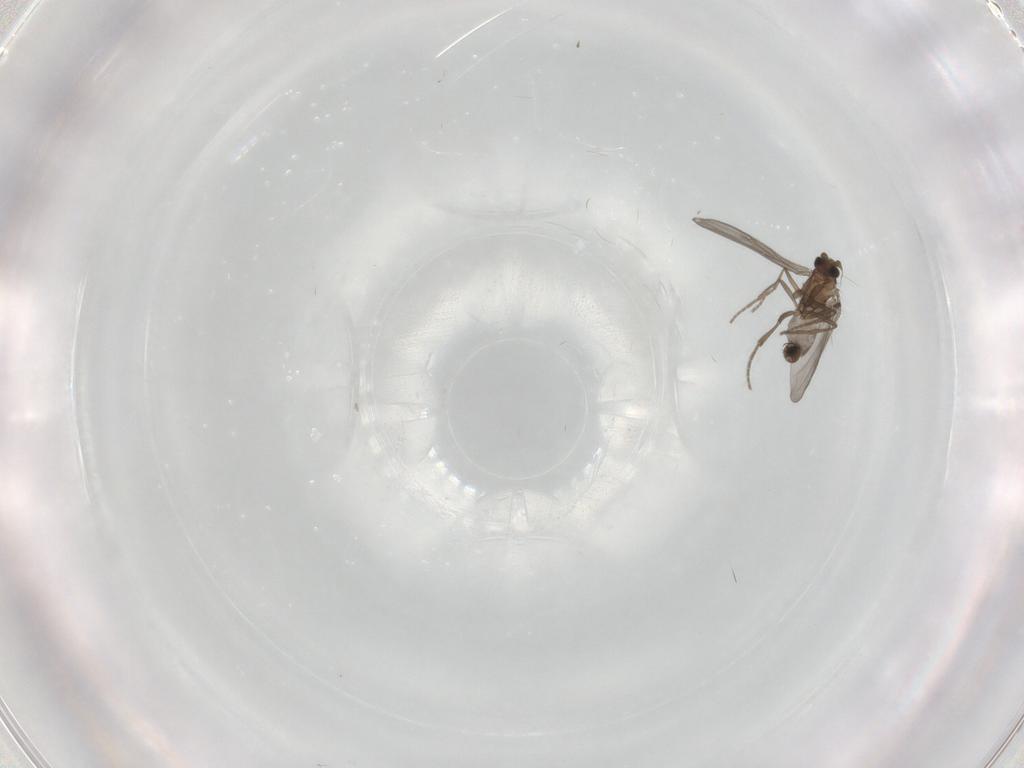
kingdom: Animalia
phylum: Arthropoda
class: Insecta
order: Diptera
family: Phoridae
